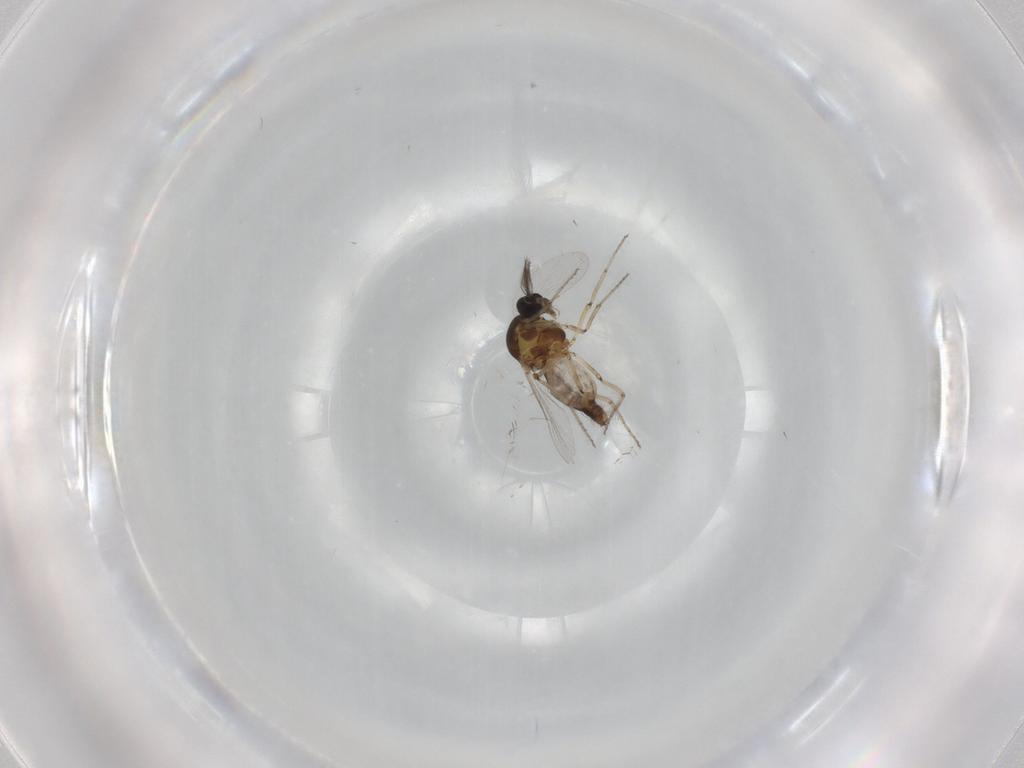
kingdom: Animalia
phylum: Arthropoda
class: Insecta
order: Diptera
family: Ceratopogonidae
